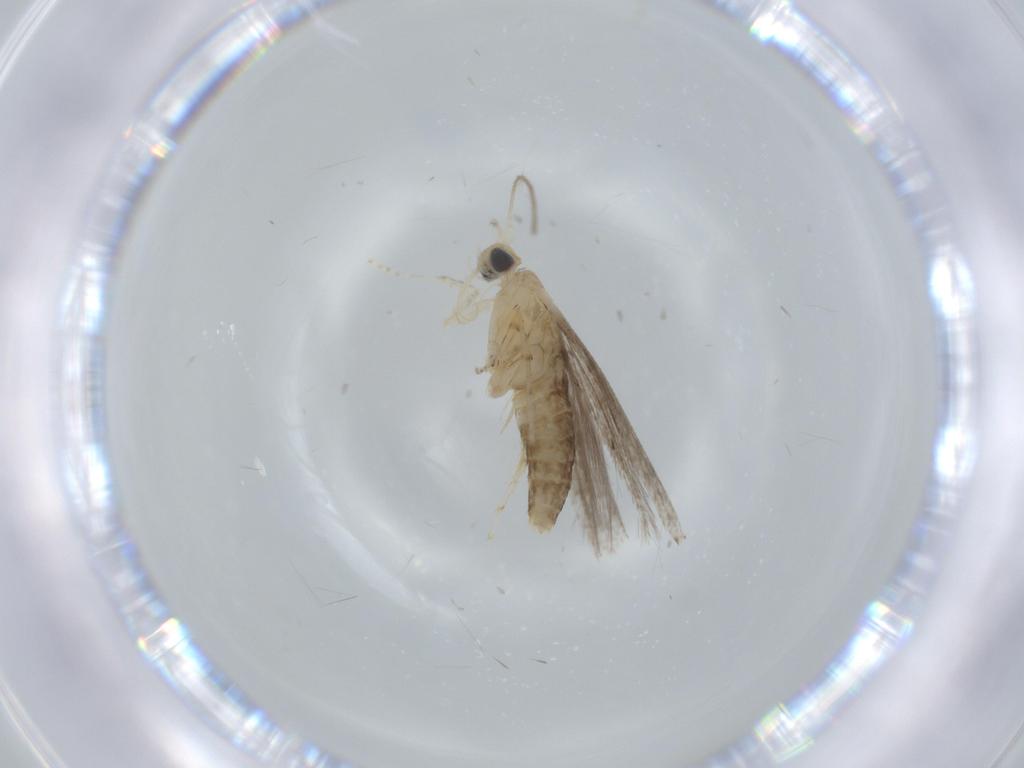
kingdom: Animalia
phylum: Arthropoda
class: Insecta
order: Lepidoptera
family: Argyresthiidae
